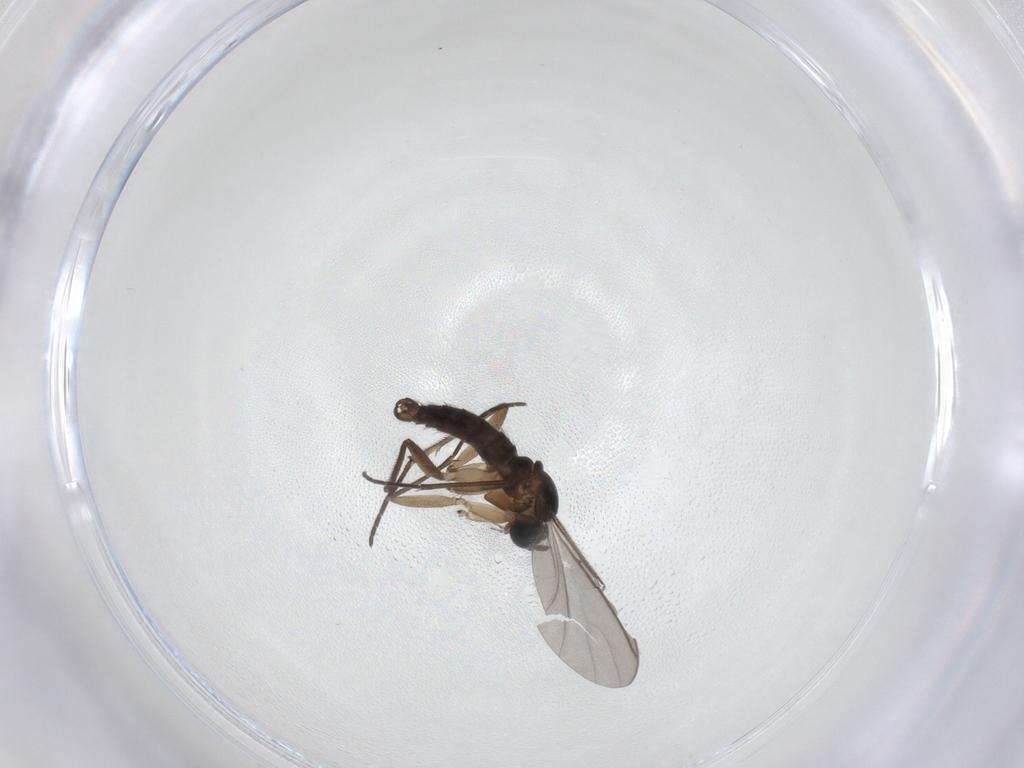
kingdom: Animalia
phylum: Arthropoda
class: Insecta
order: Diptera
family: Sciaridae
